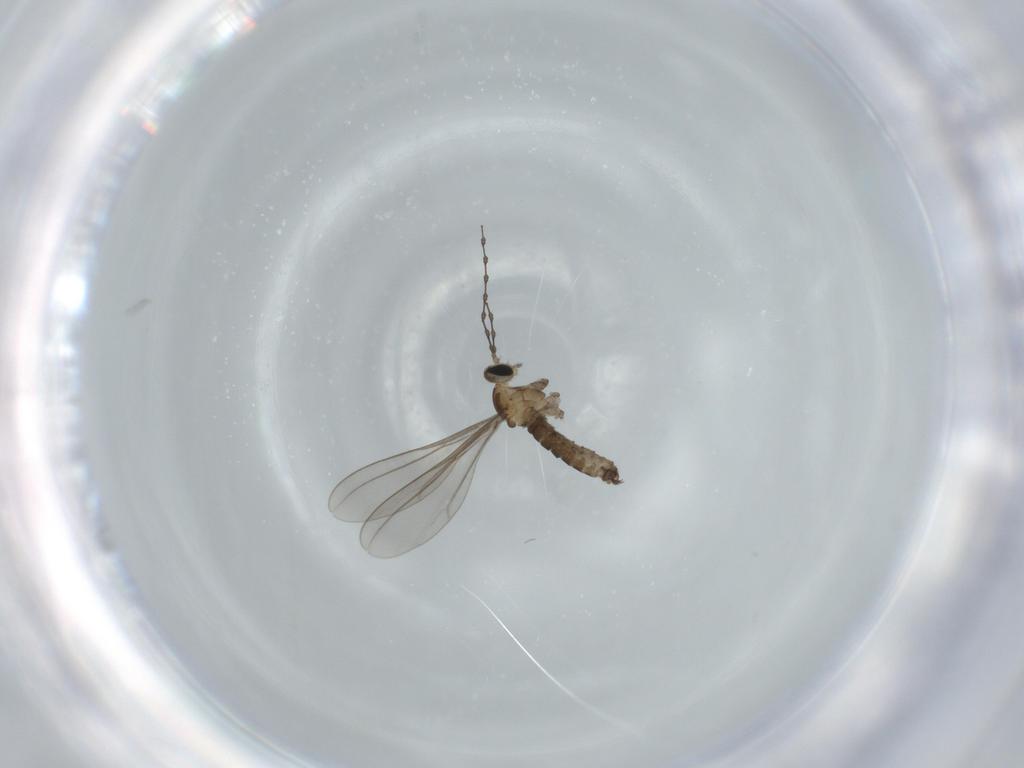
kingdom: Animalia
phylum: Arthropoda
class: Insecta
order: Diptera
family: Cecidomyiidae
